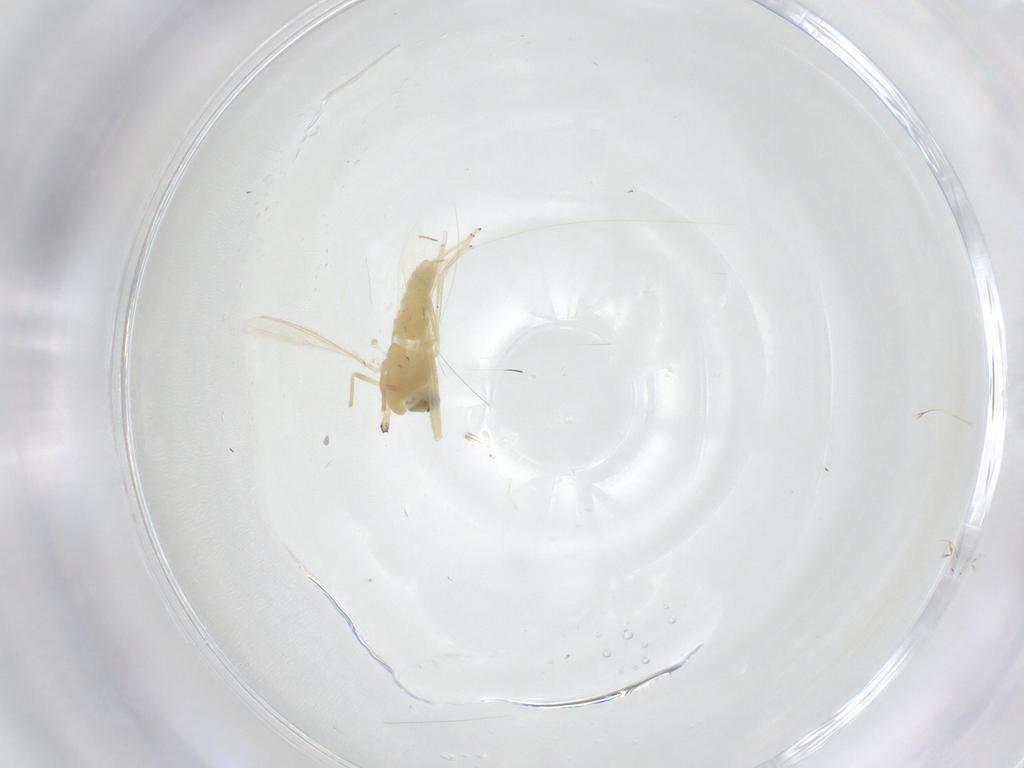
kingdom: Animalia
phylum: Arthropoda
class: Insecta
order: Diptera
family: Chironomidae
